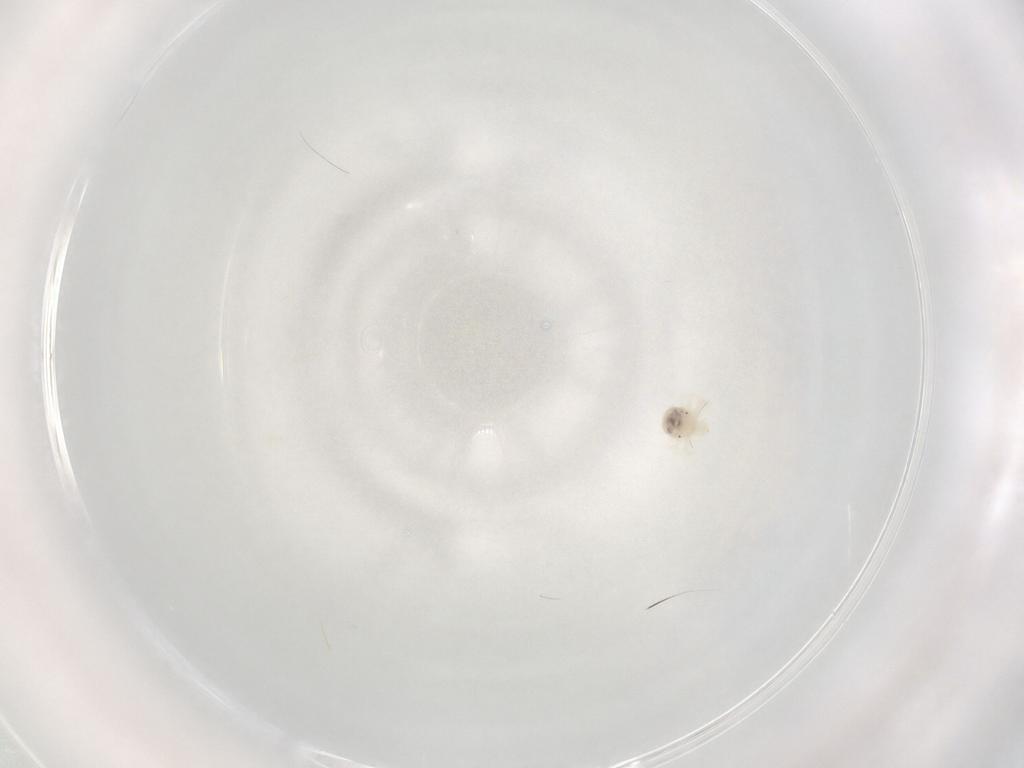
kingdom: Animalia
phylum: Arthropoda
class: Arachnida
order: Trombidiformes
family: Anystidae
